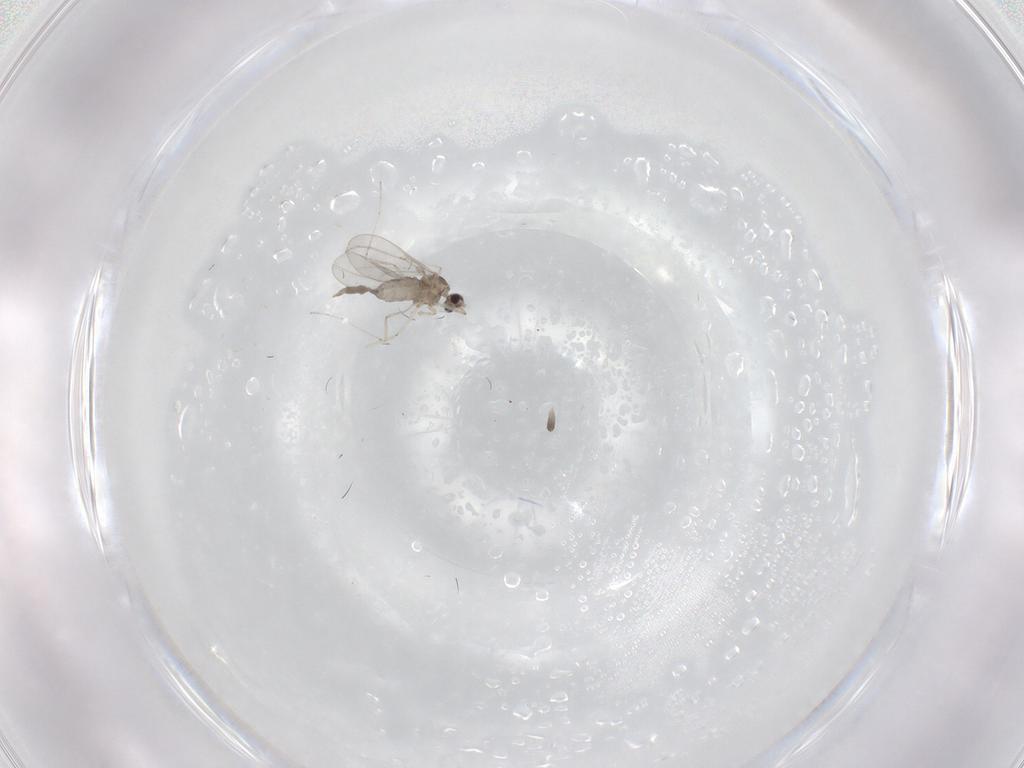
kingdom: Animalia
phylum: Arthropoda
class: Insecta
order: Diptera
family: Cecidomyiidae
